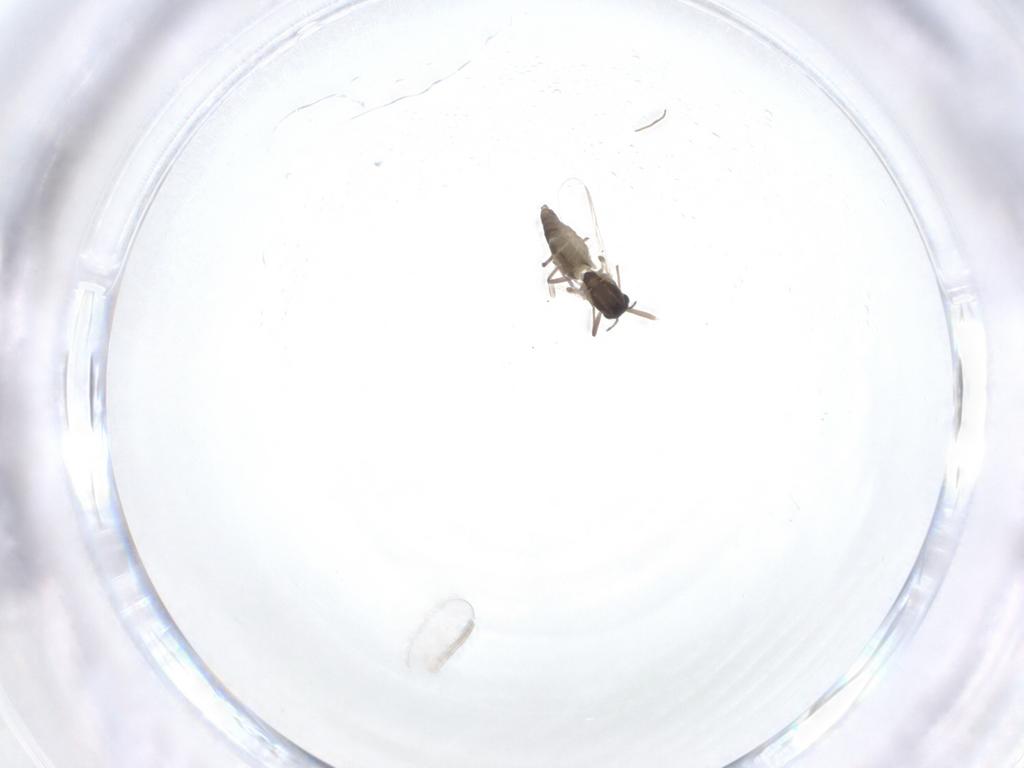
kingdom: Animalia
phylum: Arthropoda
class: Insecta
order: Diptera
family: Chironomidae
